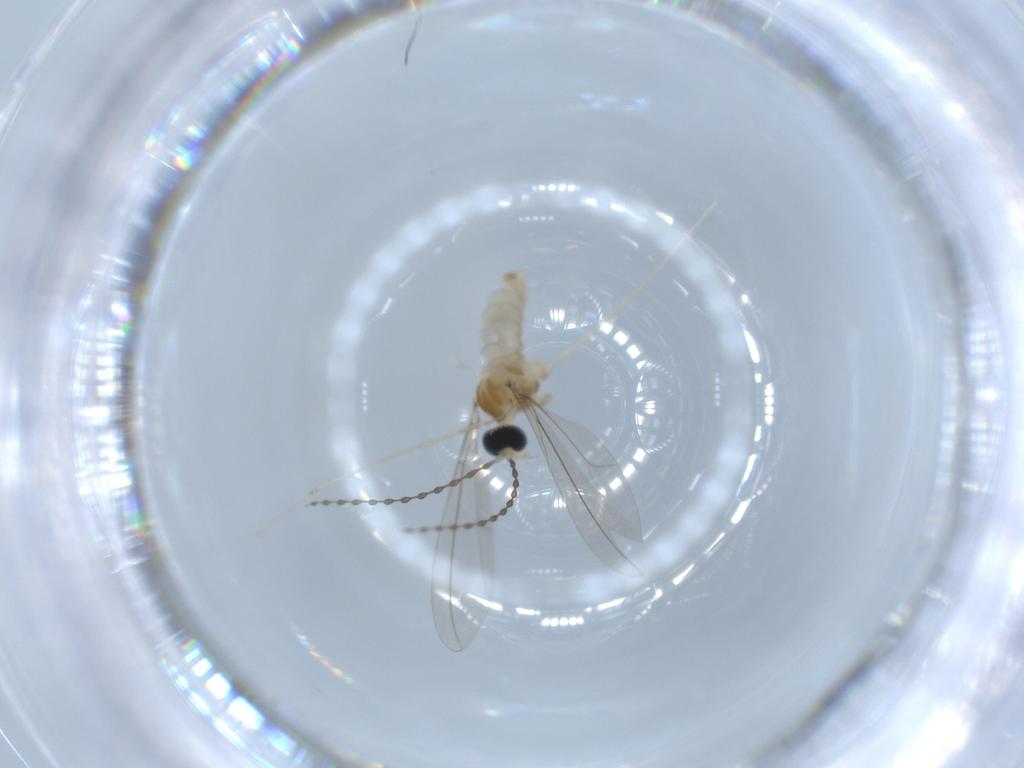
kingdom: Animalia
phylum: Arthropoda
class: Insecta
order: Diptera
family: Cecidomyiidae
